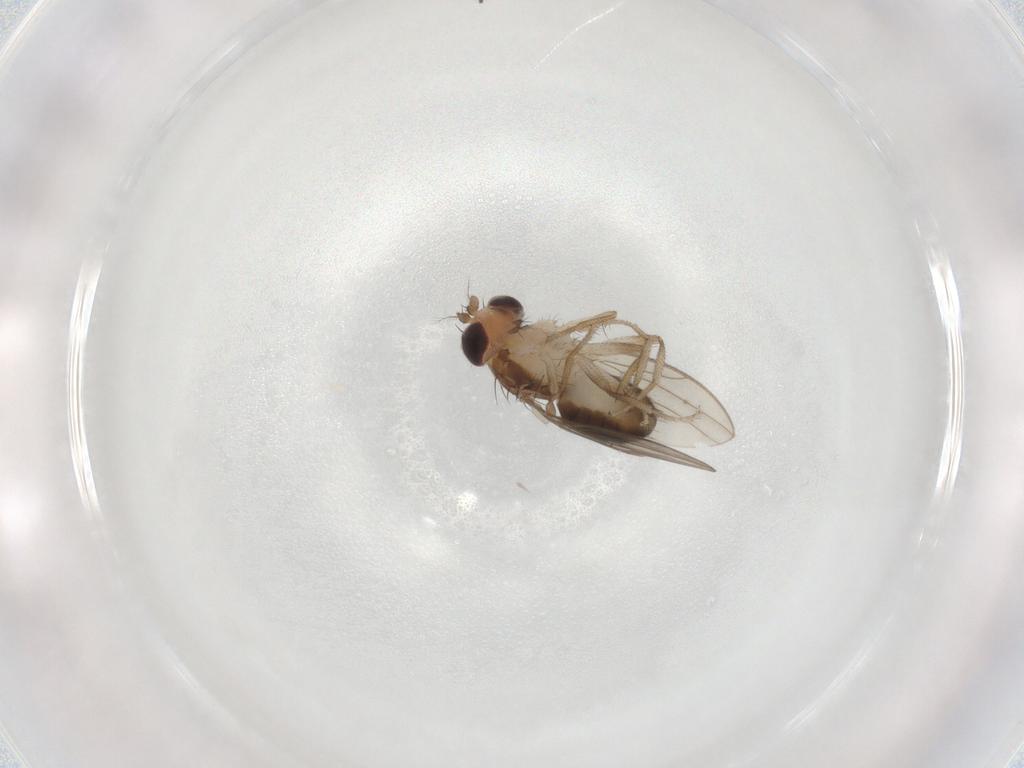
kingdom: Animalia
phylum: Arthropoda
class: Insecta
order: Diptera
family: Drosophilidae
